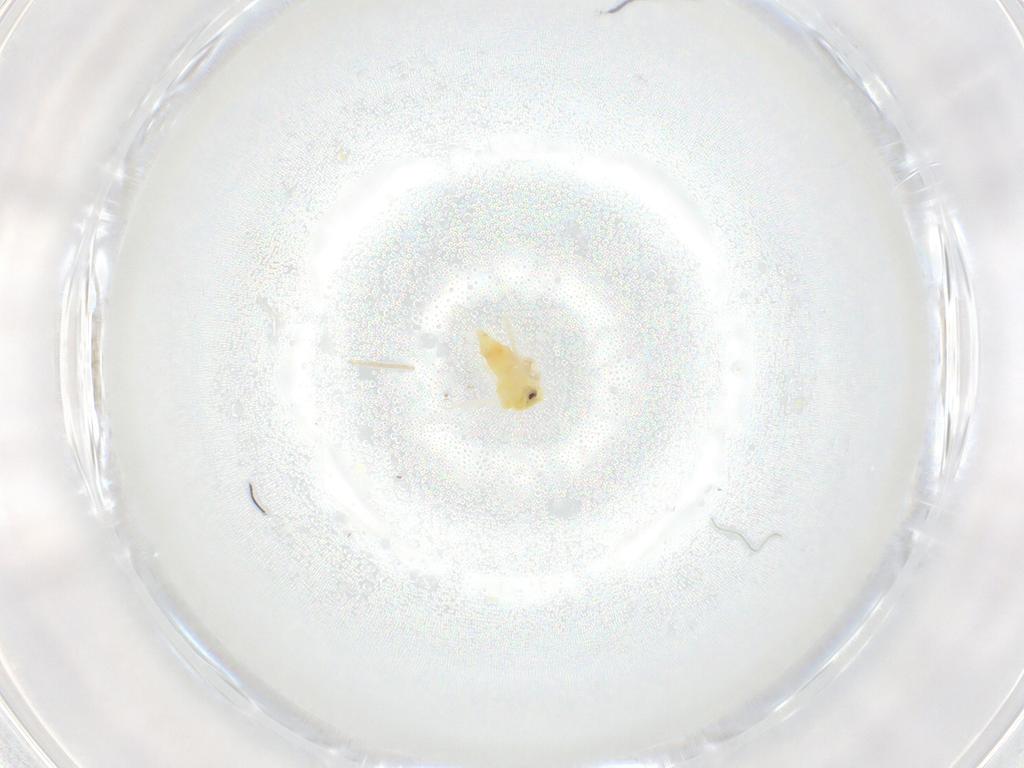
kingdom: Animalia
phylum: Arthropoda
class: Insecta
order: Hemiptera
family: Aleyrodidae
